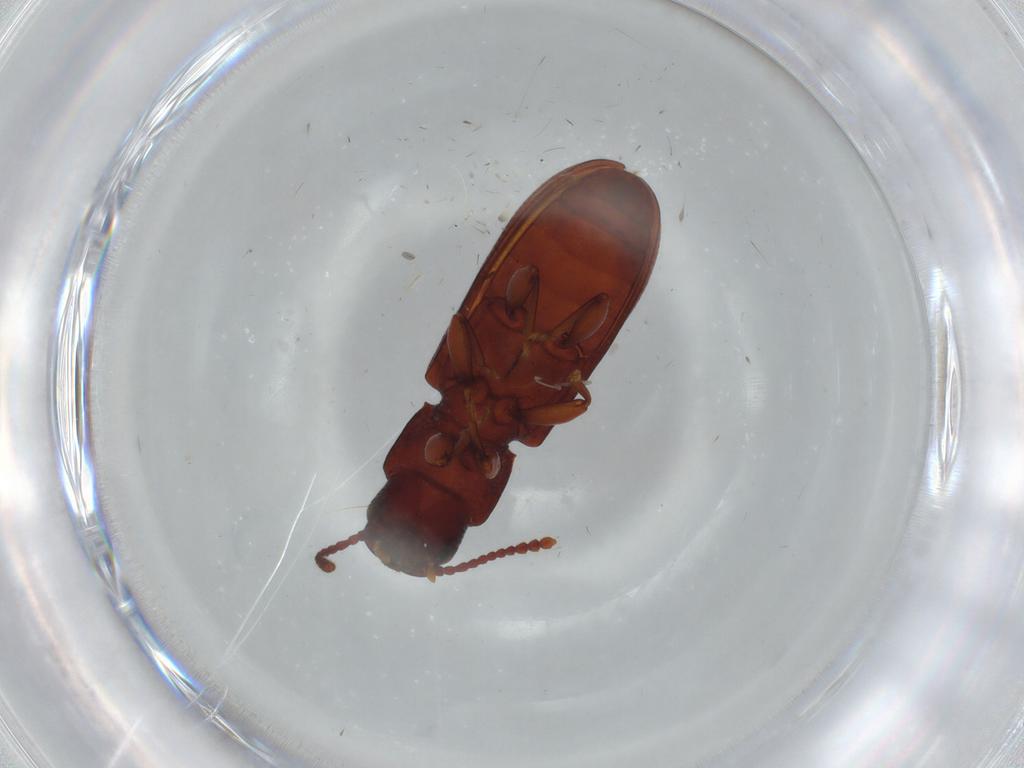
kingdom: Animalia
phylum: Arthropoda
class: Insecta
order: Coleoptera
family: Tenebrionidae
